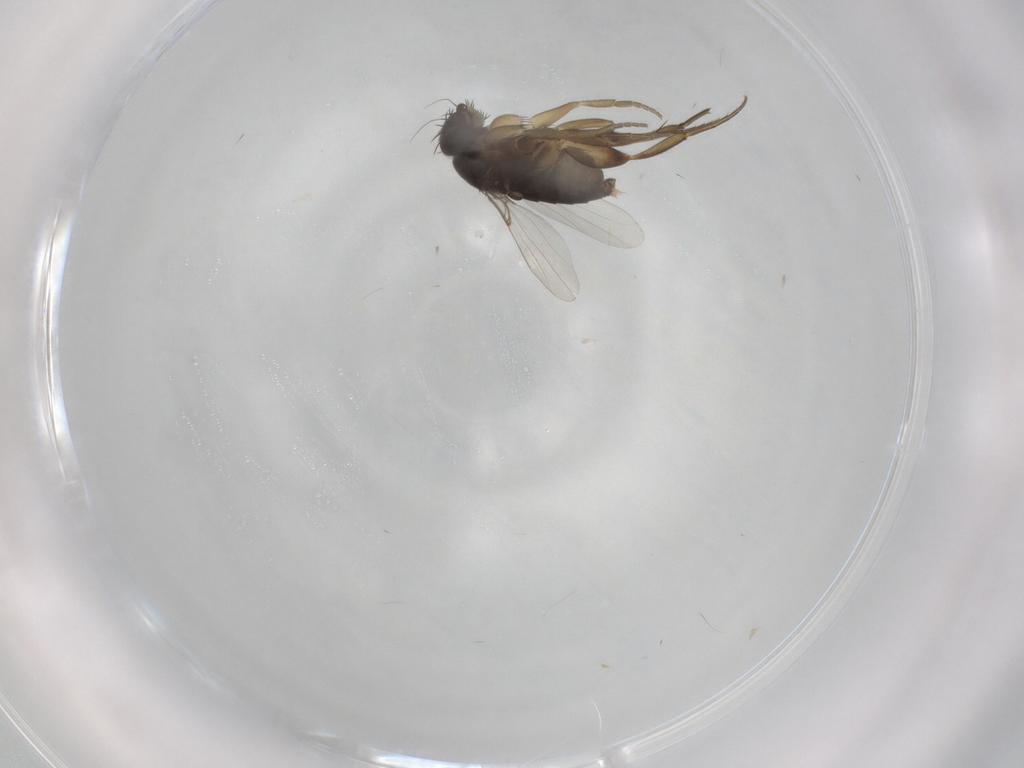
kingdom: Animalia
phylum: Arthropoda
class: Insecta
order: Diptera
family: Phoridae
